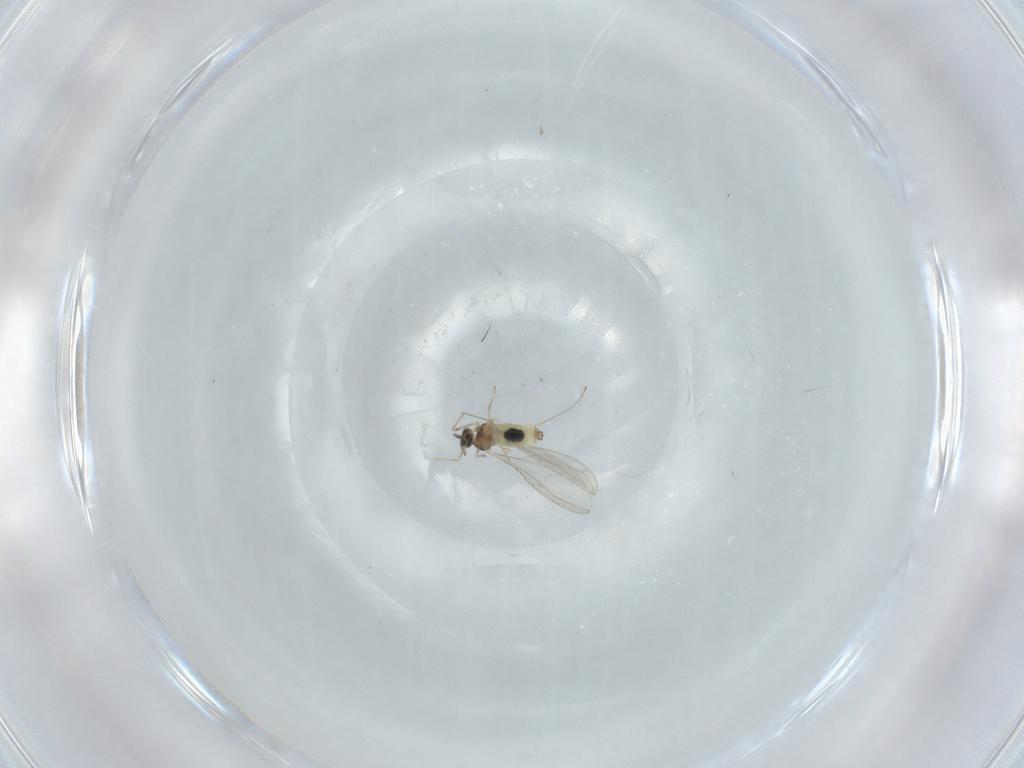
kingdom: Animalia
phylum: Arthropoda
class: Insecta
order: Diptera
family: Cecidomyiidae
